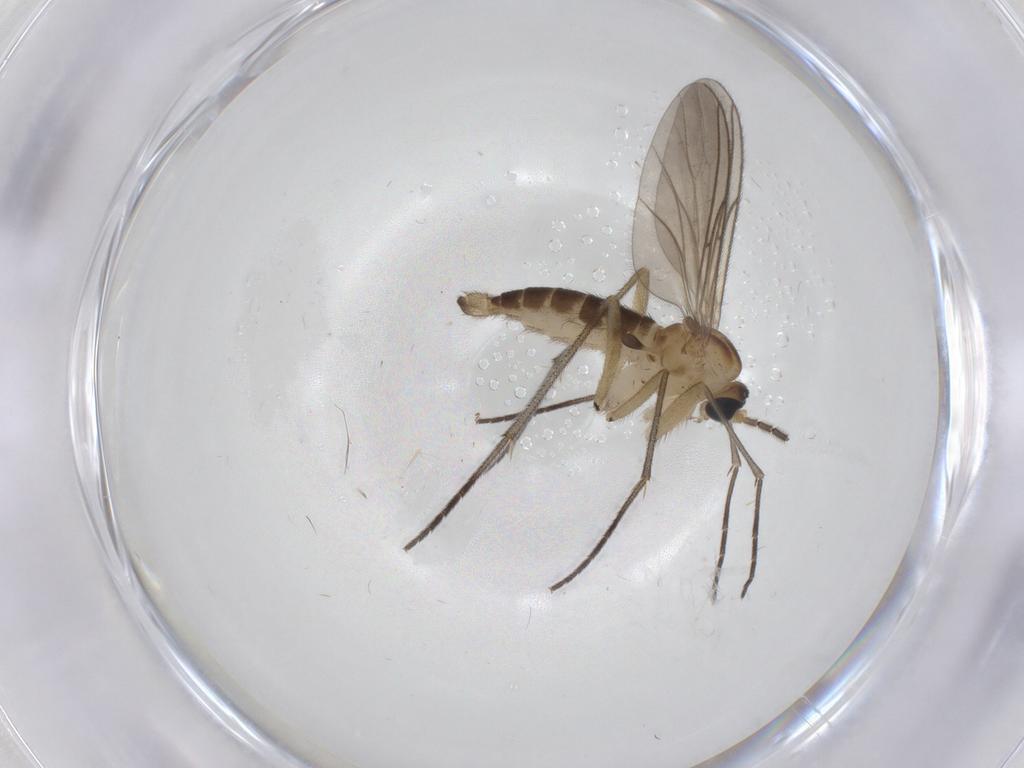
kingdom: Animalia
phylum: Arthropoda
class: Insecta
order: Diptera
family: Sciaridae
